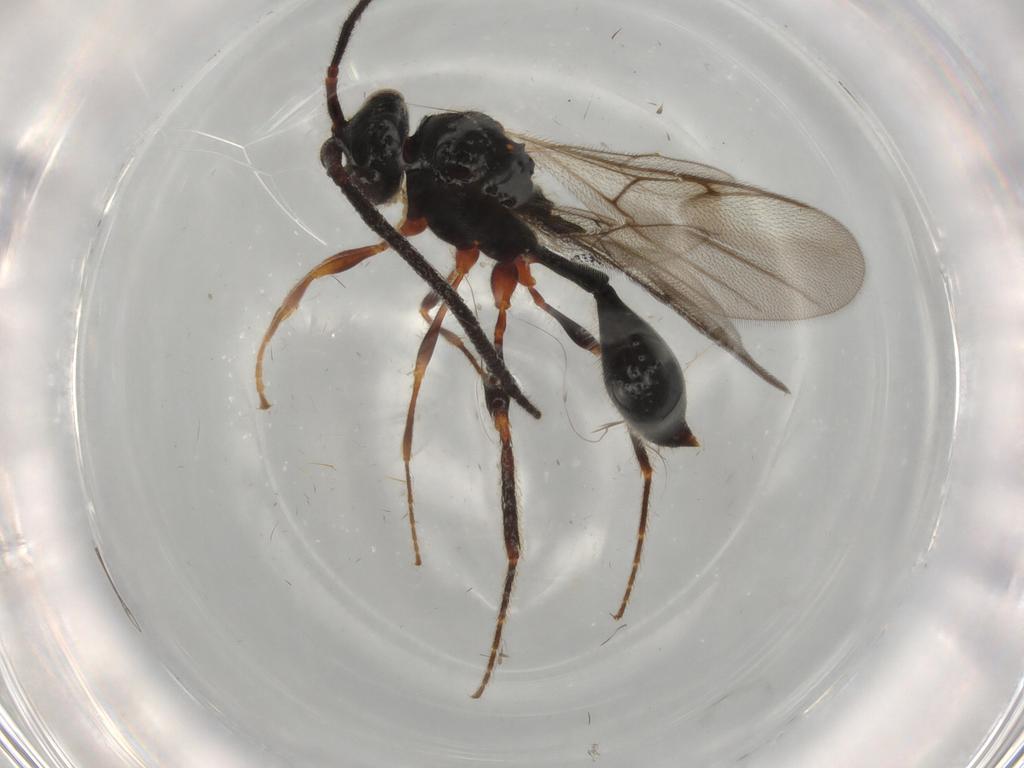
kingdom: Animalia
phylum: Arthropoda
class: Insecta
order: Hymenoptera
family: Diapriidae
